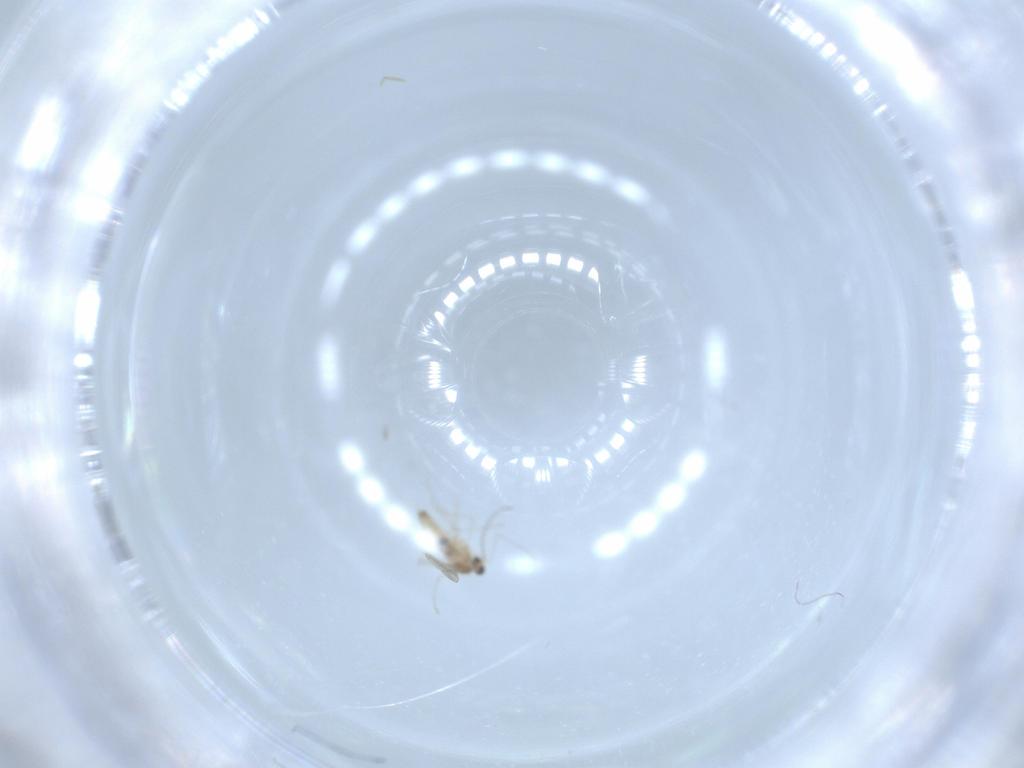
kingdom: Animalia
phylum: Arthropoda
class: Insecta
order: Diptera
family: Cecidomyiidae
